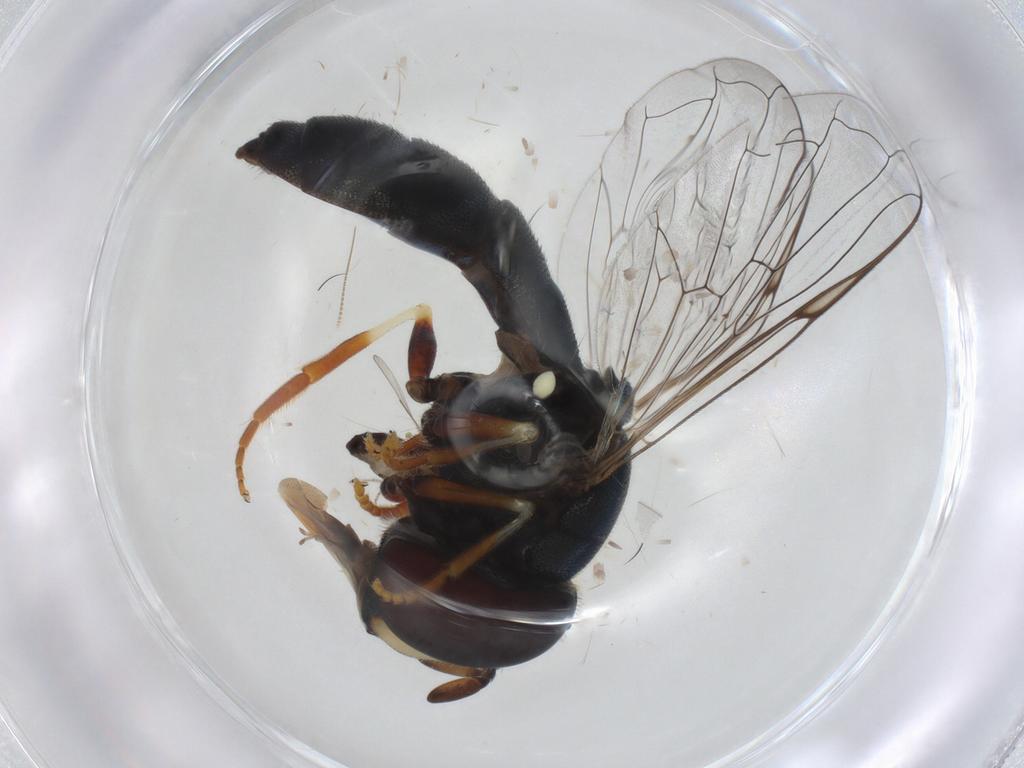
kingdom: Animalia
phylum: Arthropoda
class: Insecta
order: Diptera
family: Syrphidae
